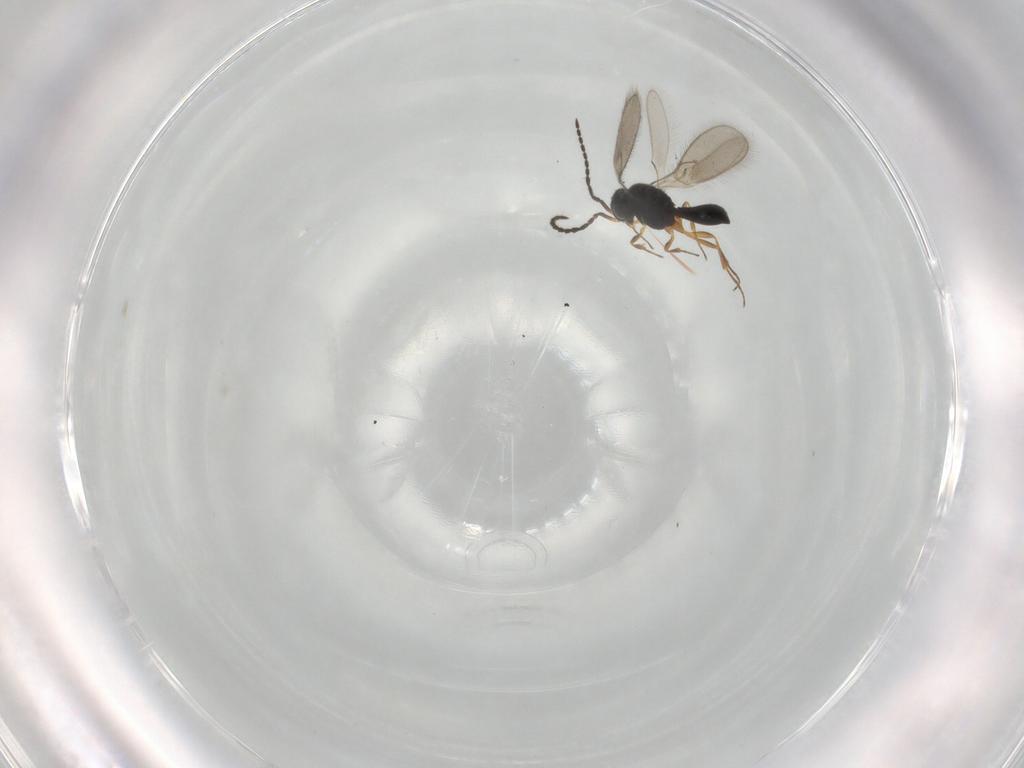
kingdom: Animalia
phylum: Arthropoda
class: Insecta
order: Hymenoptera
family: Scelionidae
